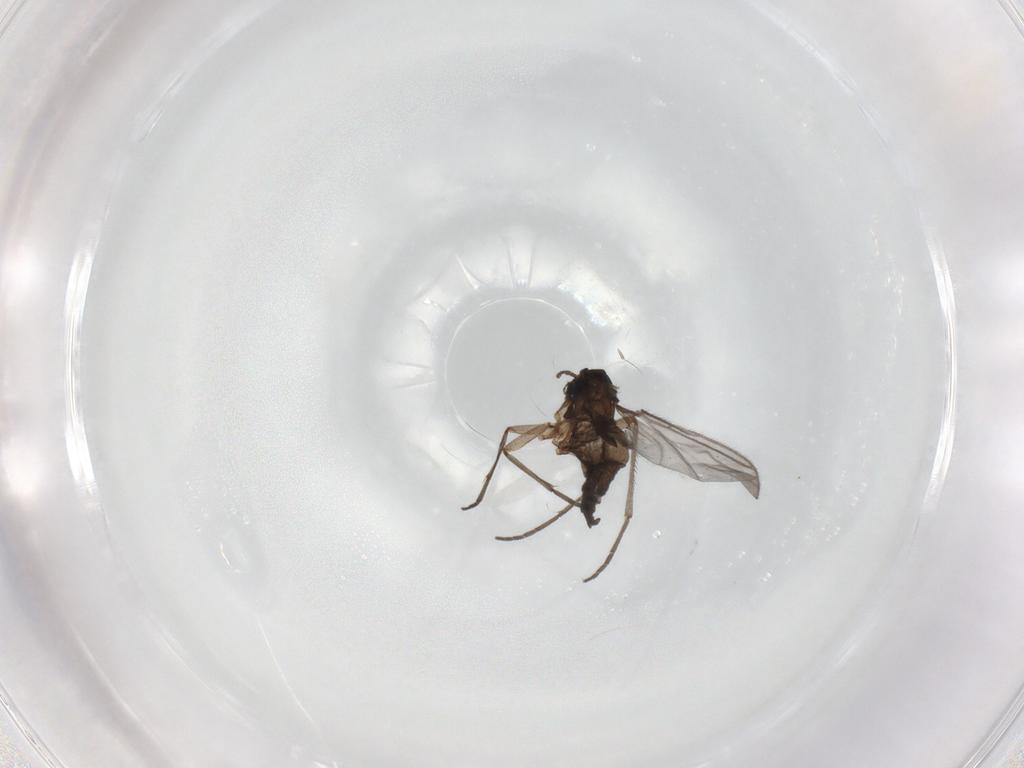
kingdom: Animalia
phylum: Arthropoda
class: Insecta
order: Diptera
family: Sciaridae
